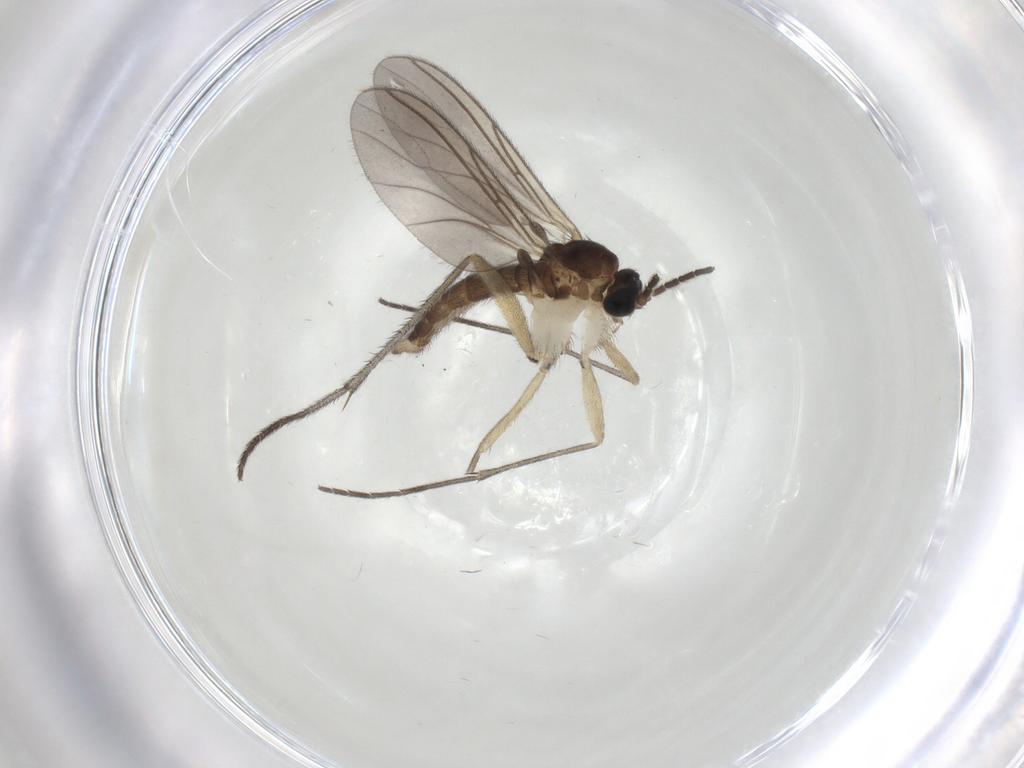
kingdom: Animalia
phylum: Arthropoda
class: Insecta
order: Diptera
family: Sciaridae
